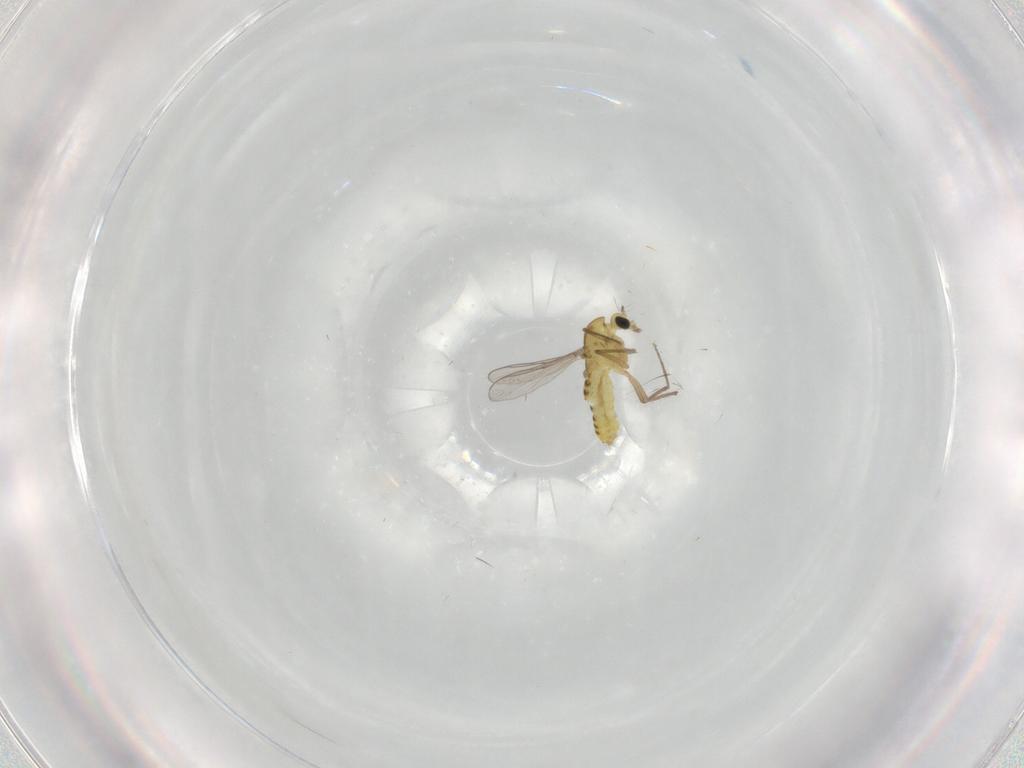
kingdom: Animalia
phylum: Arthropoda
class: Insecta
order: Diptera
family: Chironomidae
